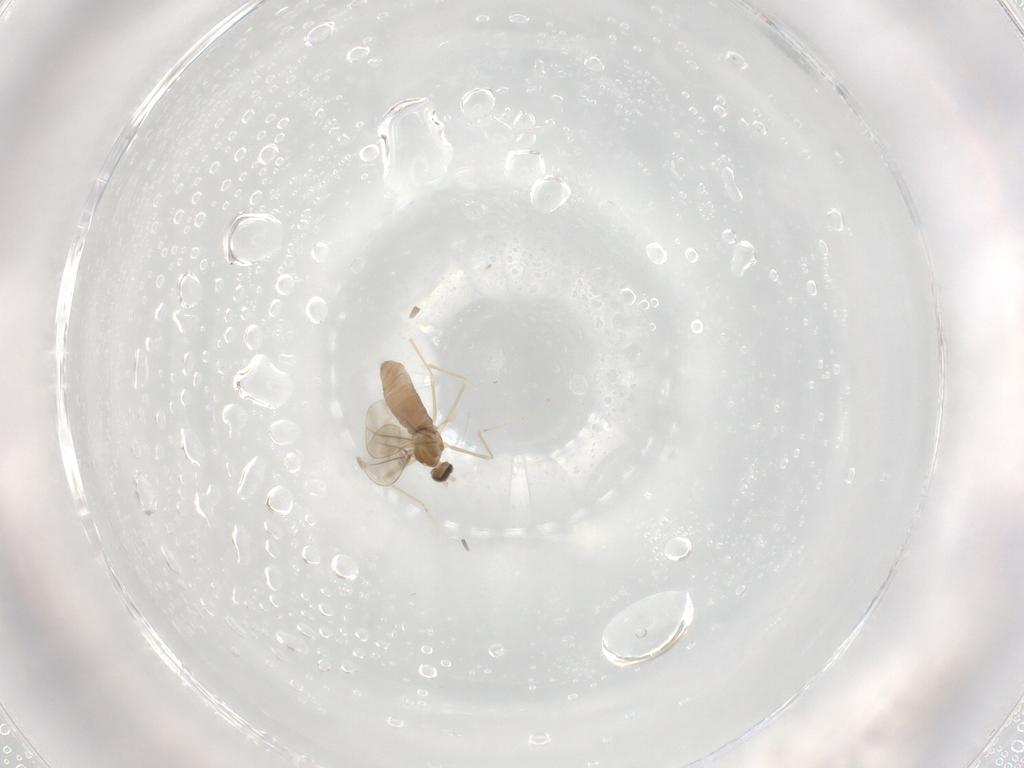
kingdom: Animalia
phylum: Arthropoda
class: Insecta
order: Diptera
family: Cecidomyiidae
